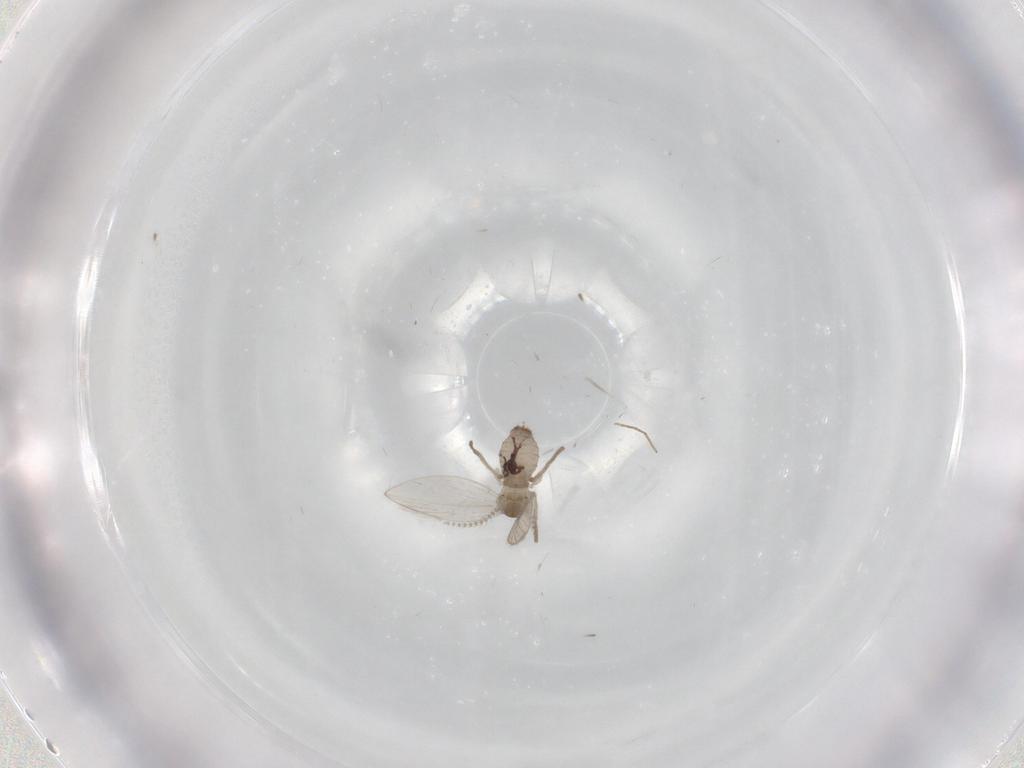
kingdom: Animalia
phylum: Arthropoda
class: Insecta
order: Diptera
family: Psychodidae
